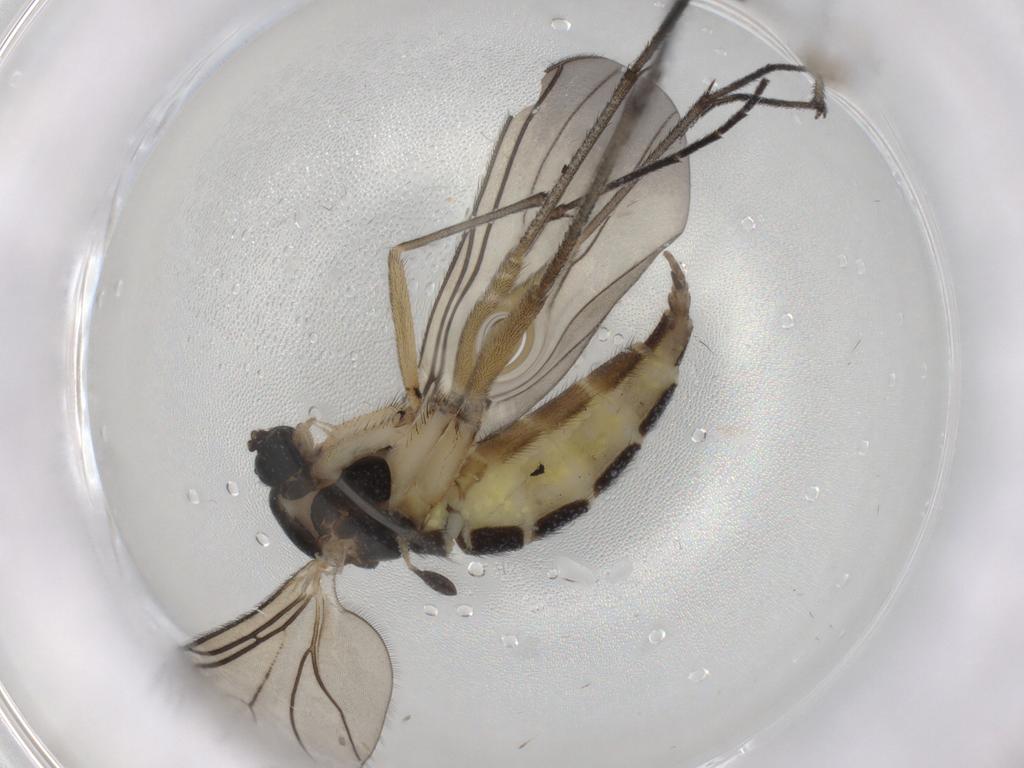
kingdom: Animalia
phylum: Arthropoda
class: Insecta
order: Diptera
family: Sciaridae
